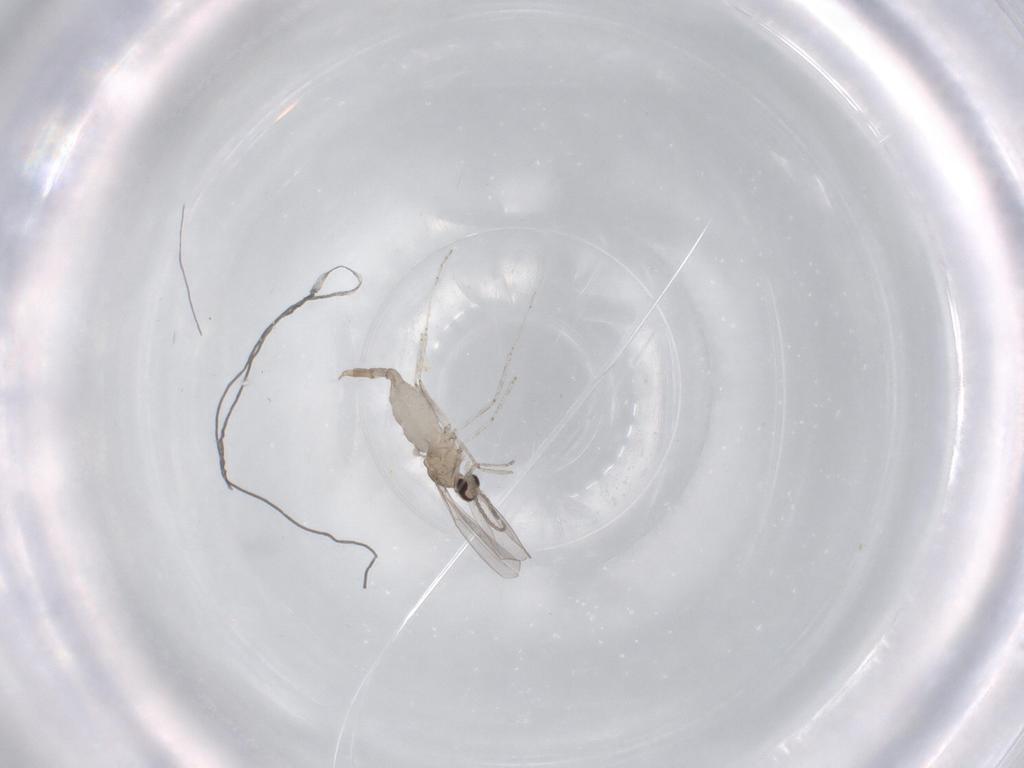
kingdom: Animalia
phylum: Arthropoda
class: Insecta
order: Diptera
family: Cecidomyiidae
